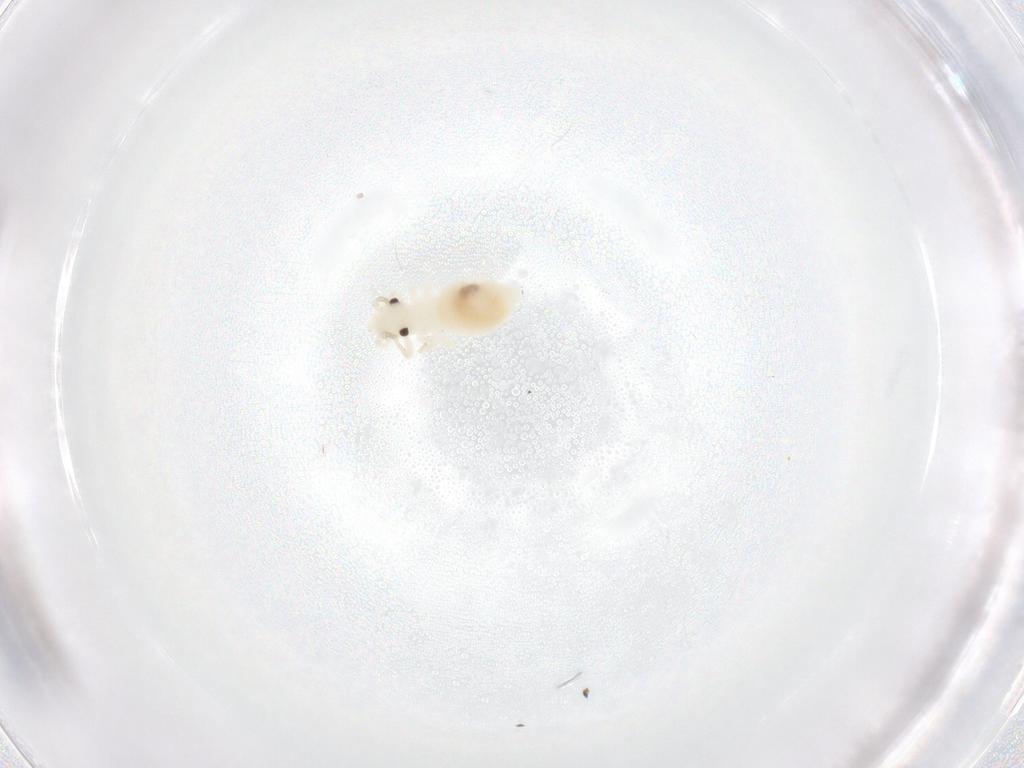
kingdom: Animalia
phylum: Arthropoda
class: Insecta
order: Psocodea
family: Caeciliusidae
